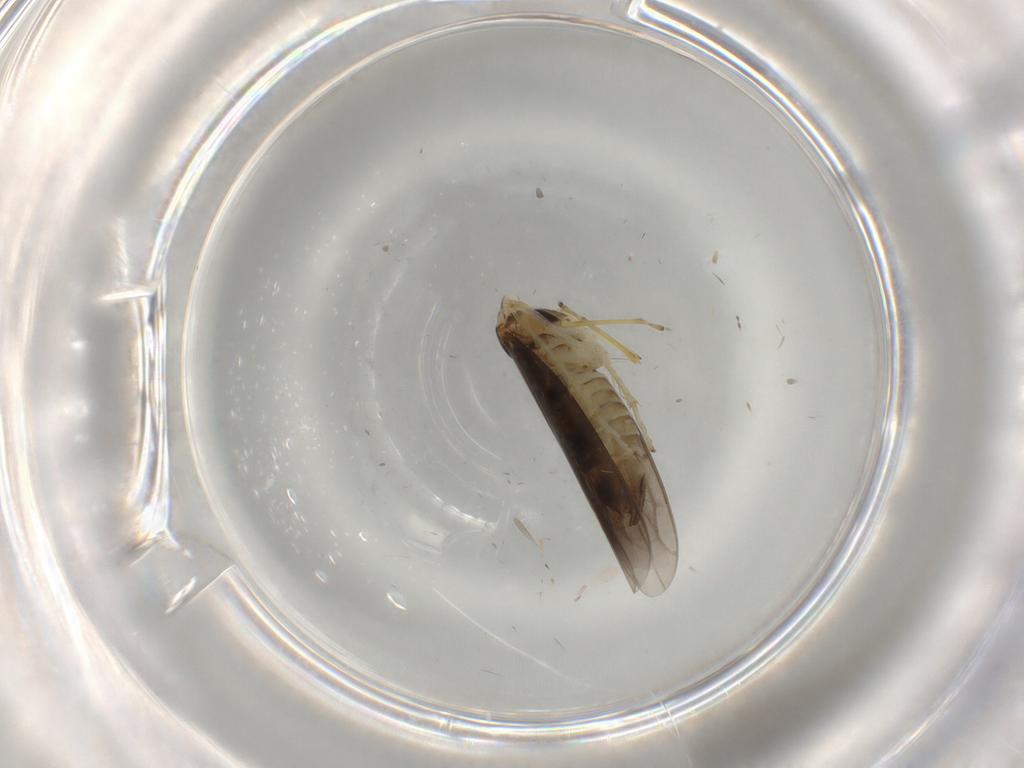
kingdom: Animalia
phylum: Arthropoda
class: Insecta
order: Hemiptera
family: Cicadellidae
